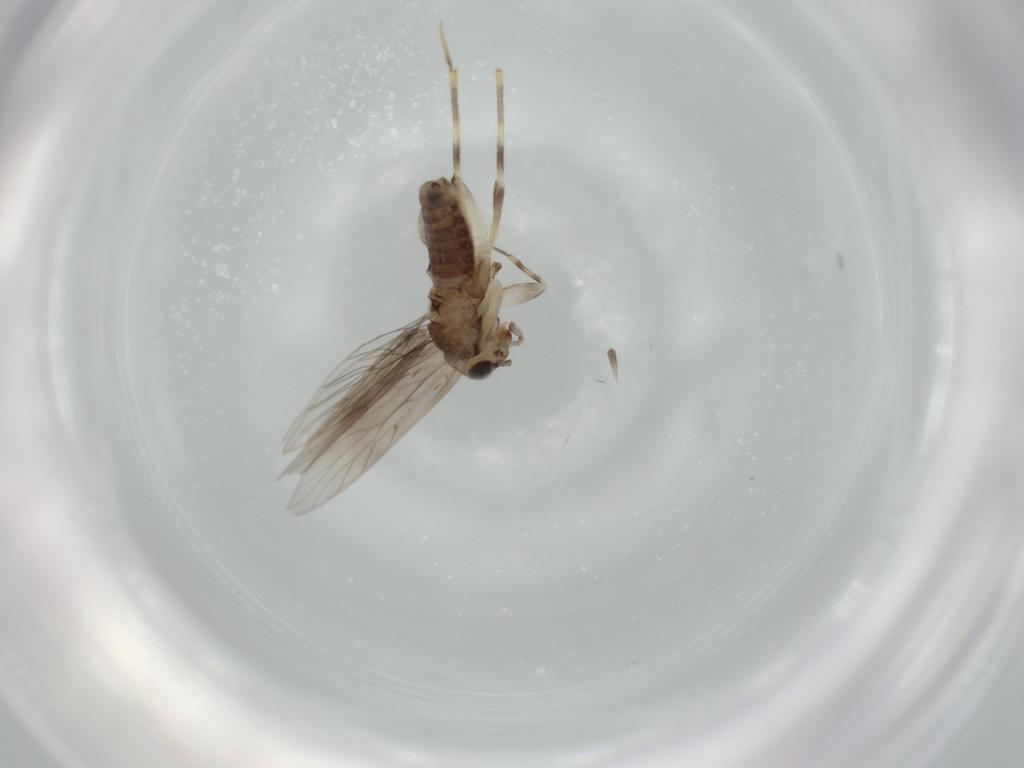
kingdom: Animalia
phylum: Arthropoda
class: Insecta
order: Psocodea
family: Lepidopsocidae
